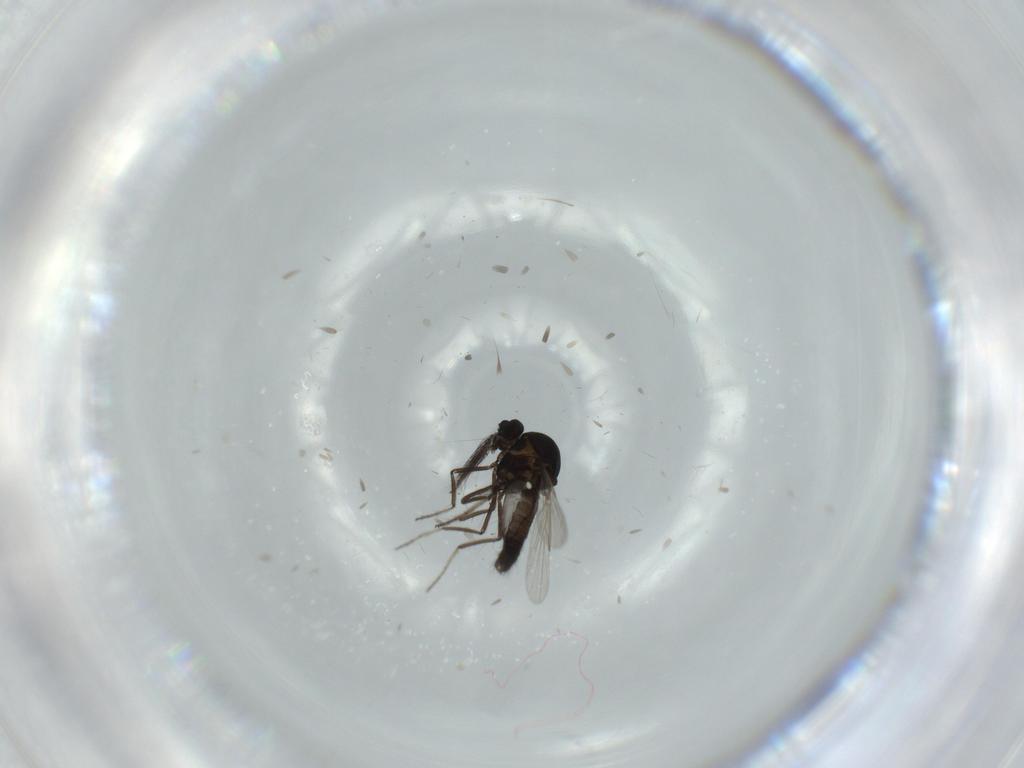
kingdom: Animalia
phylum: Arthropoda
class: Insecta
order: Diptera
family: Ceratopogonidae
